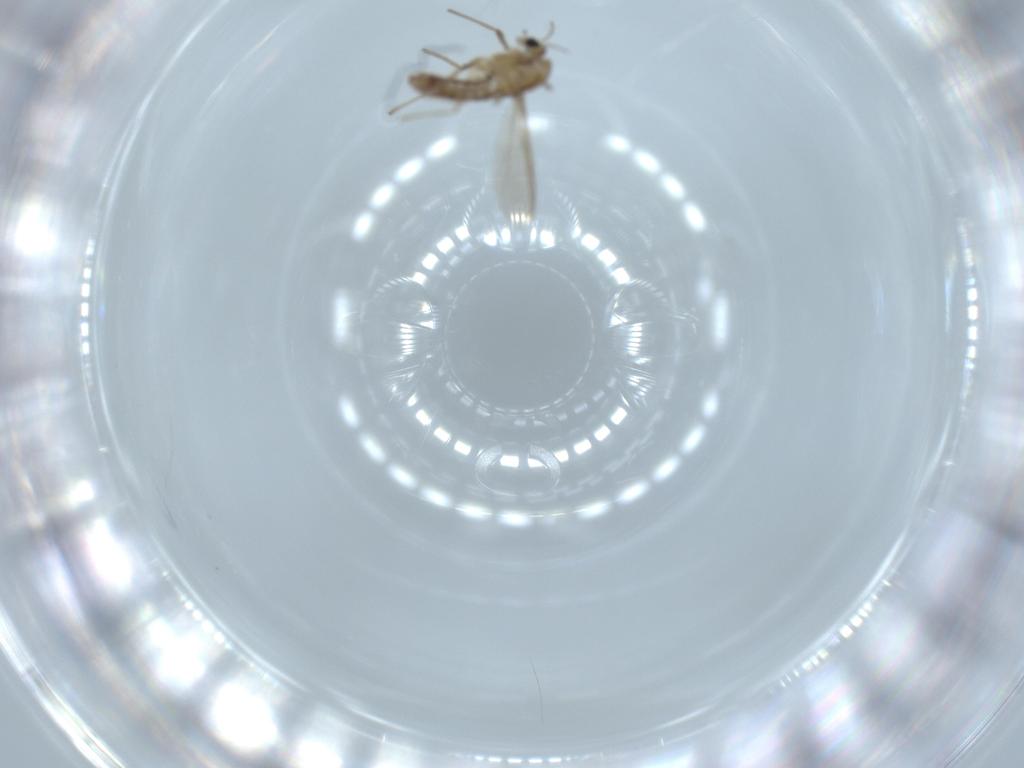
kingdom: Animalia
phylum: Arthropoda
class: Insecta
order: Diptera
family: Chironomidae
